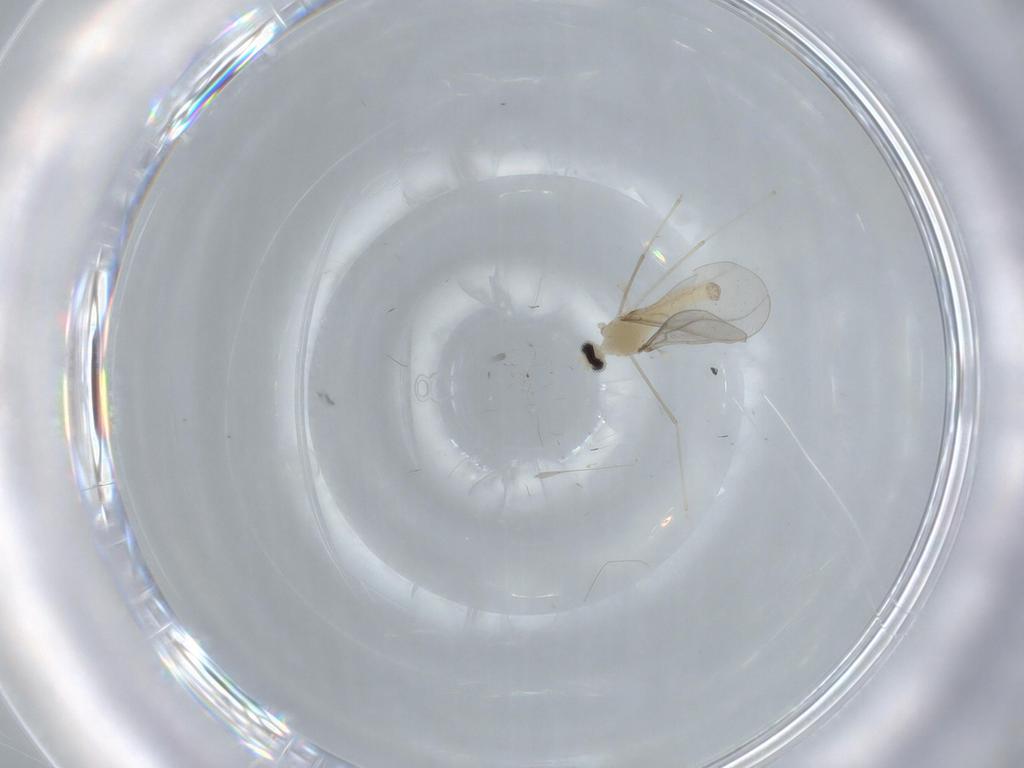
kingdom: Animalia
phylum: Arthropoda
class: Insecta
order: Diptera
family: Cecidomyiidae
